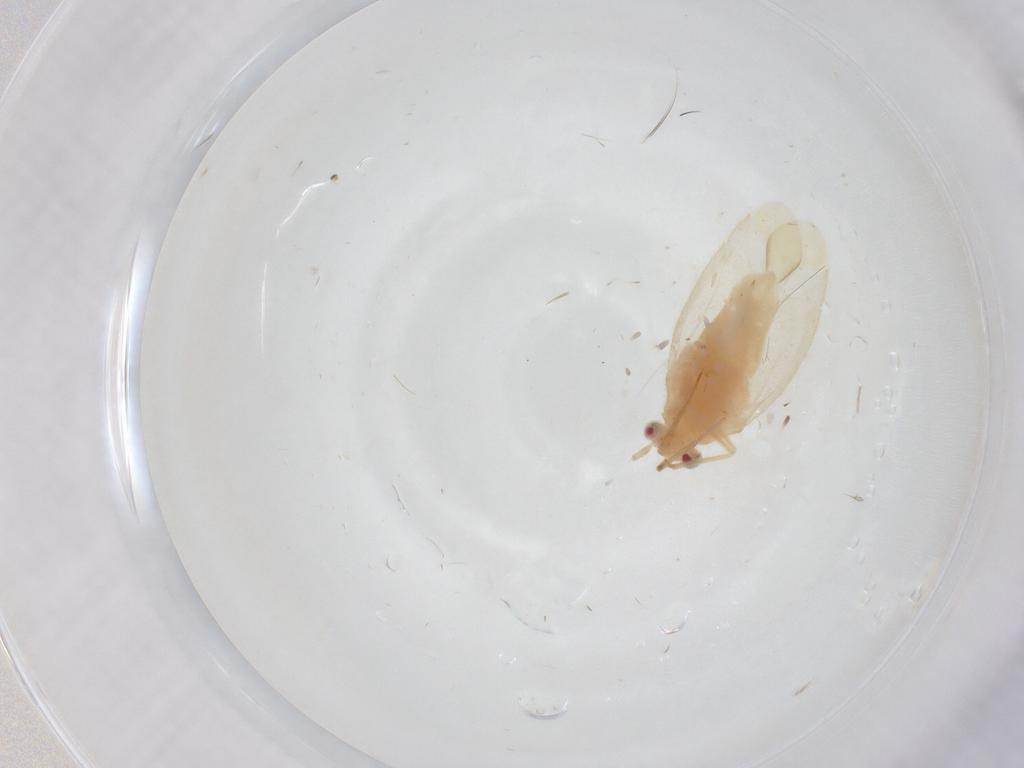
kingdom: Animalia
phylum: Arthropoda
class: Insecta
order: Hemiptera
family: Miridae
